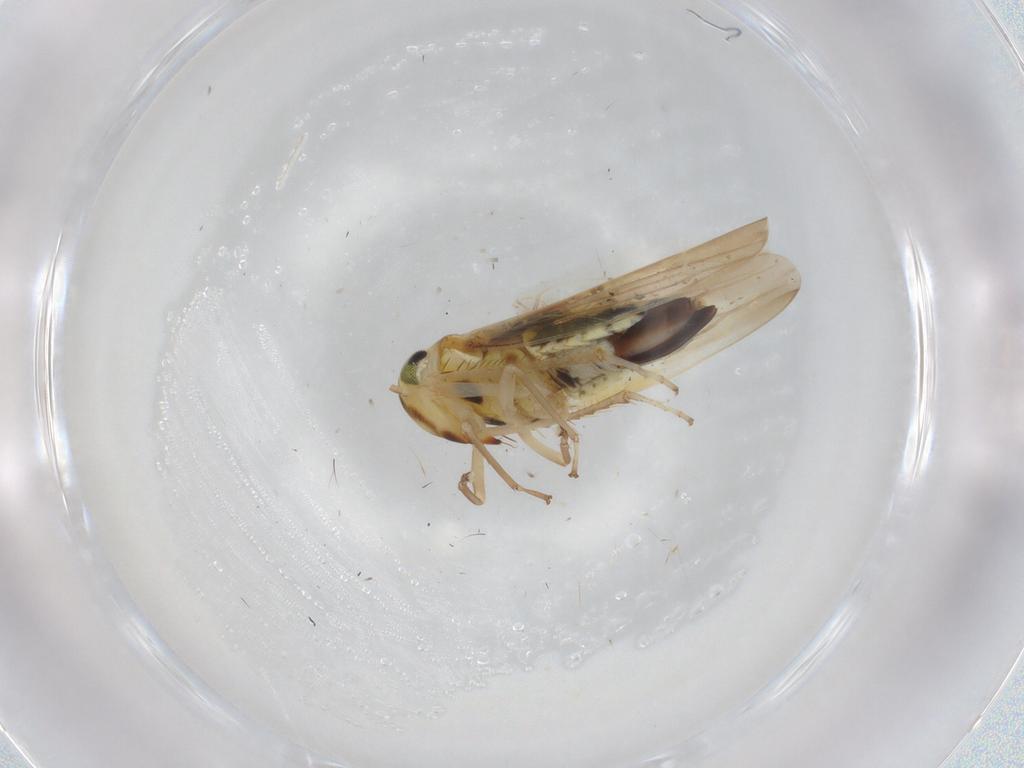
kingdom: Animalia
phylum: Arthropoda
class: Insecta
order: Hemiptera
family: Cicadellidae
